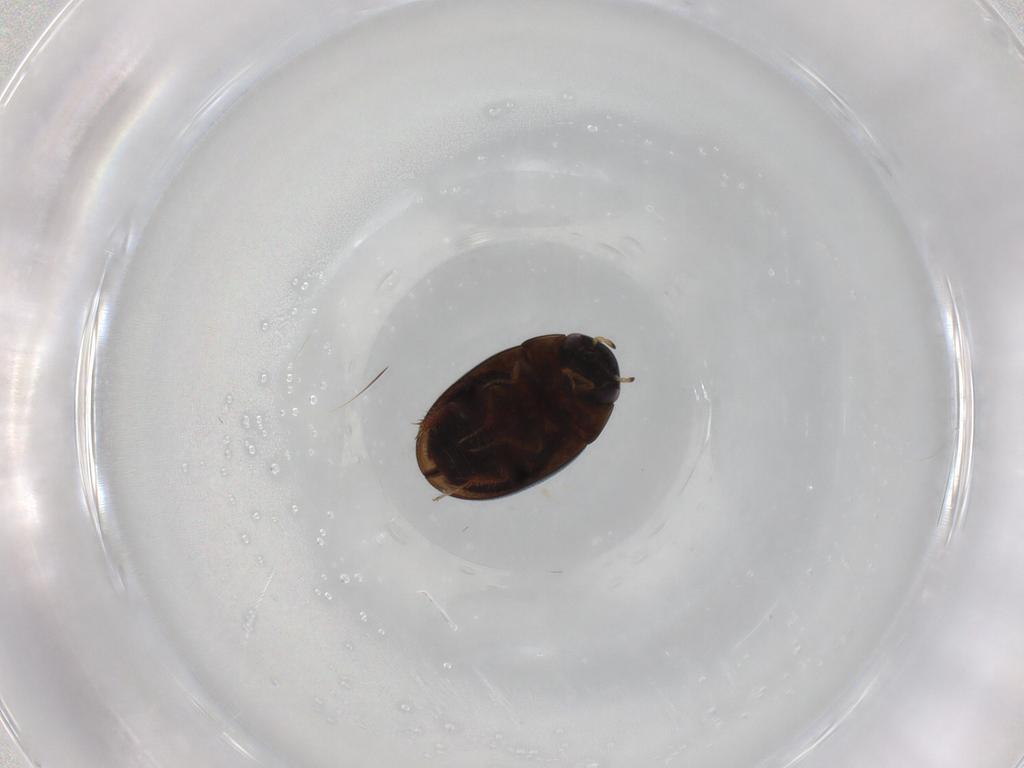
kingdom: Animalia
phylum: Arthropoda
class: Insecta
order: Coleoptera
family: Hydrophilidae
